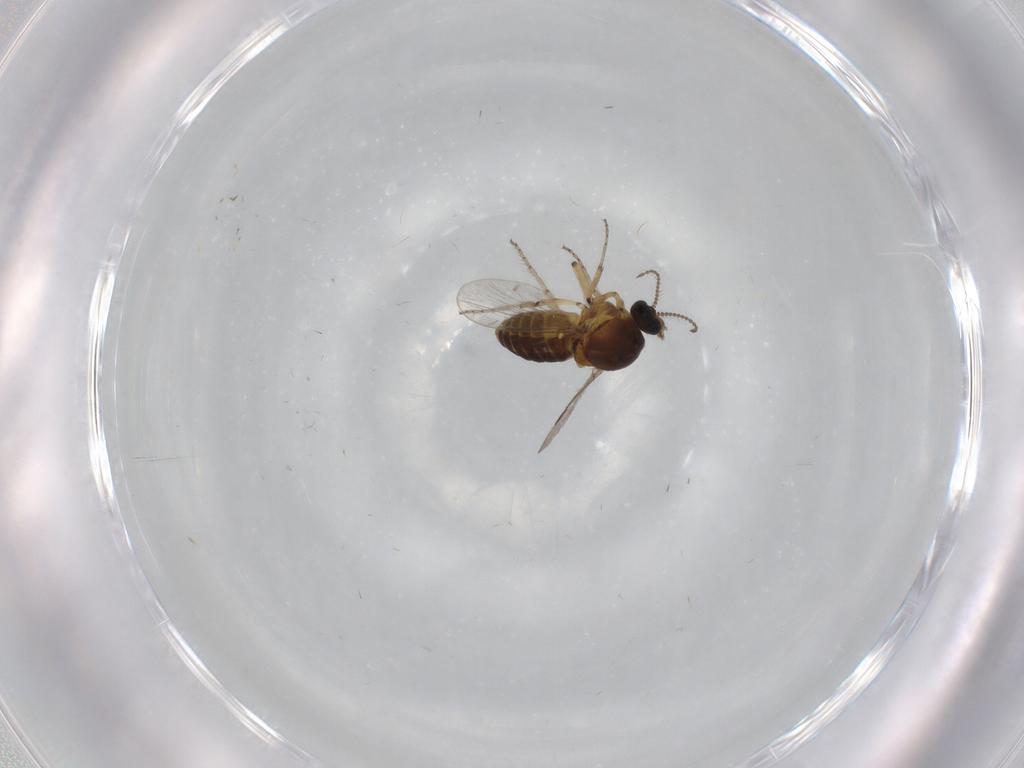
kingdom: Animalia
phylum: Arthropoda
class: Insecta
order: Diptera
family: Ceratopogonidae
